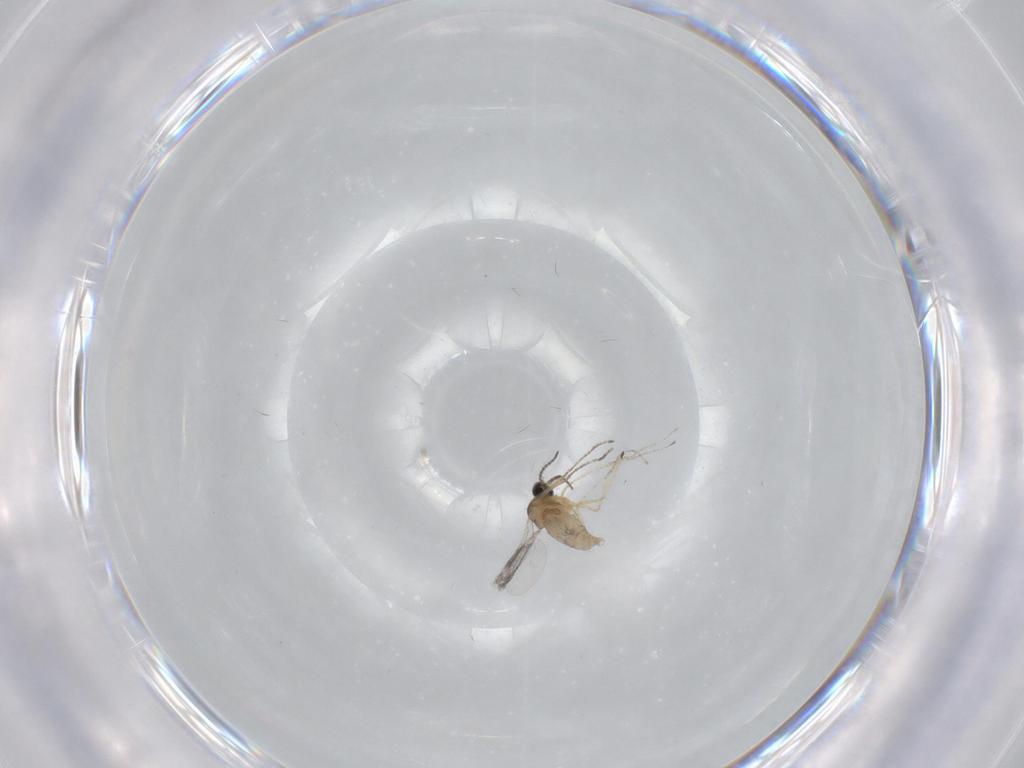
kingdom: Animalia
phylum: Arthropoda
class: Insecta
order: Diptera
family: Cecidomyiidae
